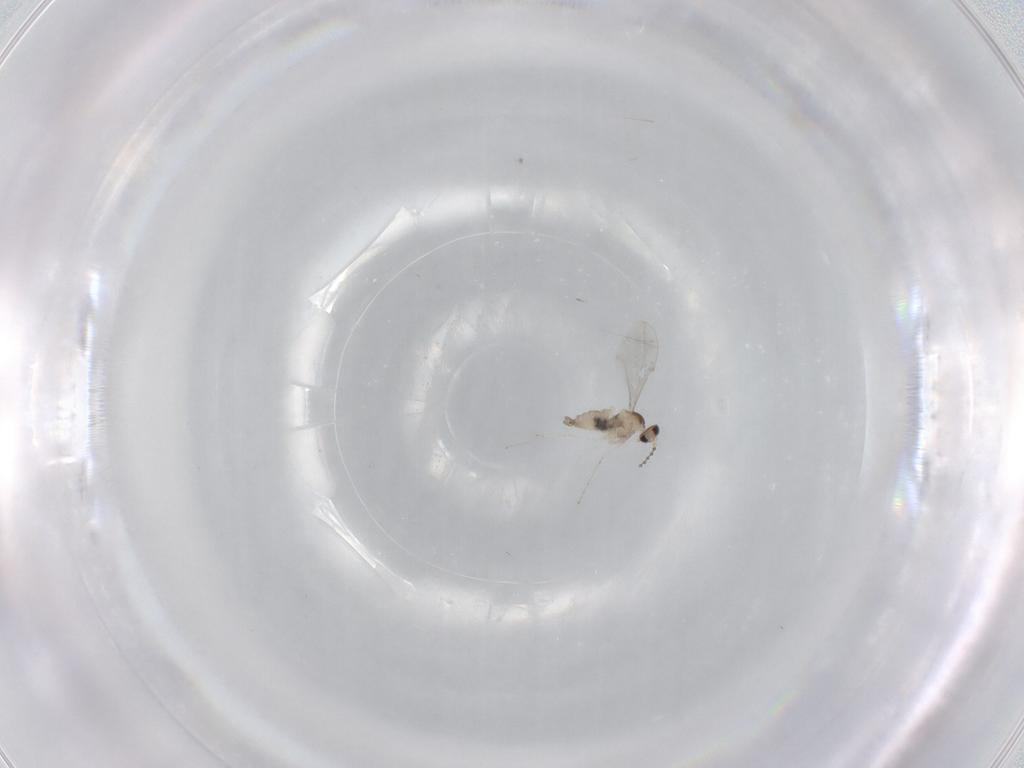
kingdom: Animalia
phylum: Arthropoda
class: Insecta
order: Diptera
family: Cecidomyiidae
